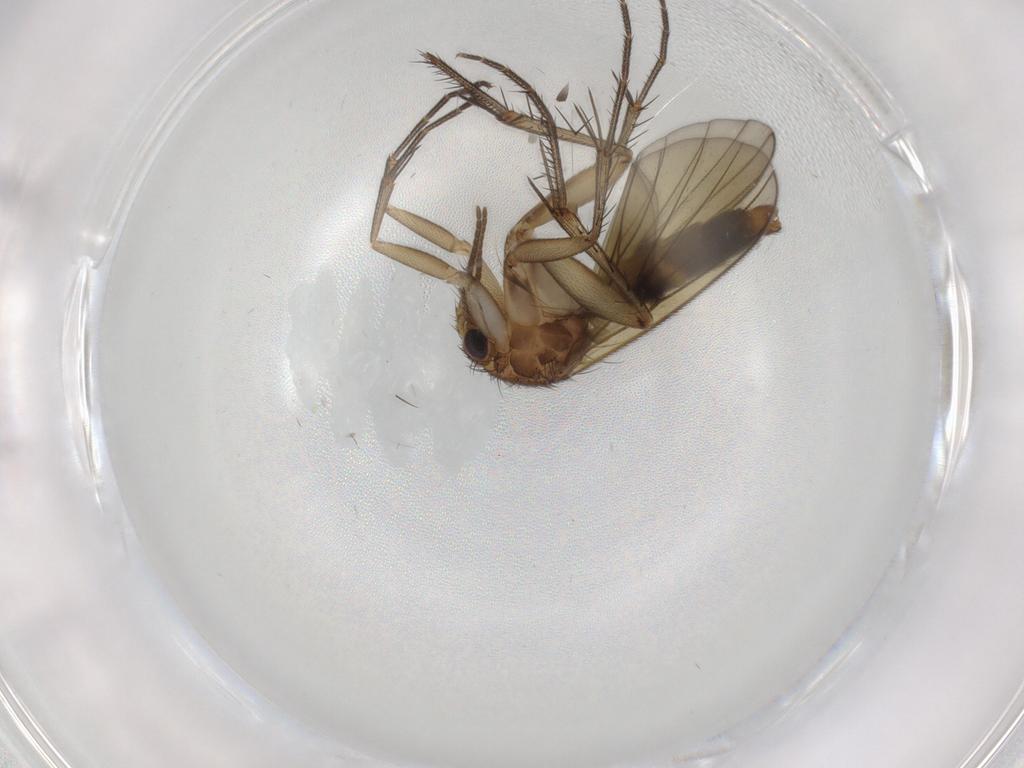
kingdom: Animalia
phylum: Arthropoda
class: Insecta
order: Diptera
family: Mycetophilidae
